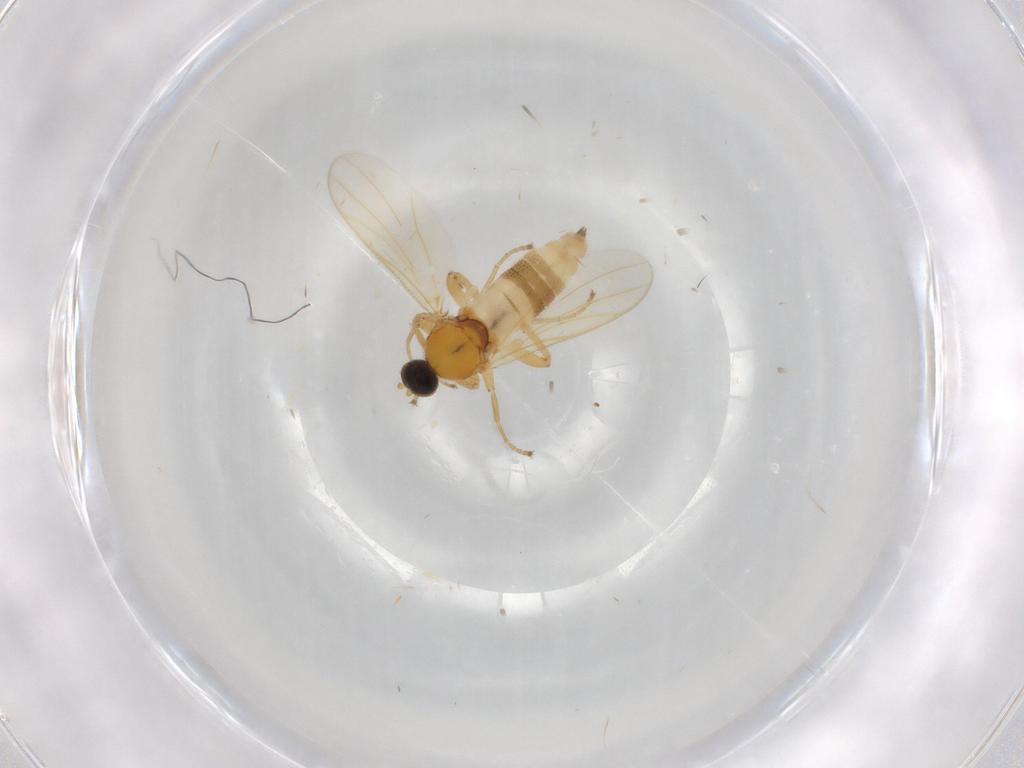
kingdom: Animalia
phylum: Arthropoda
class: Insecta
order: Diptera
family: Hybotidae
